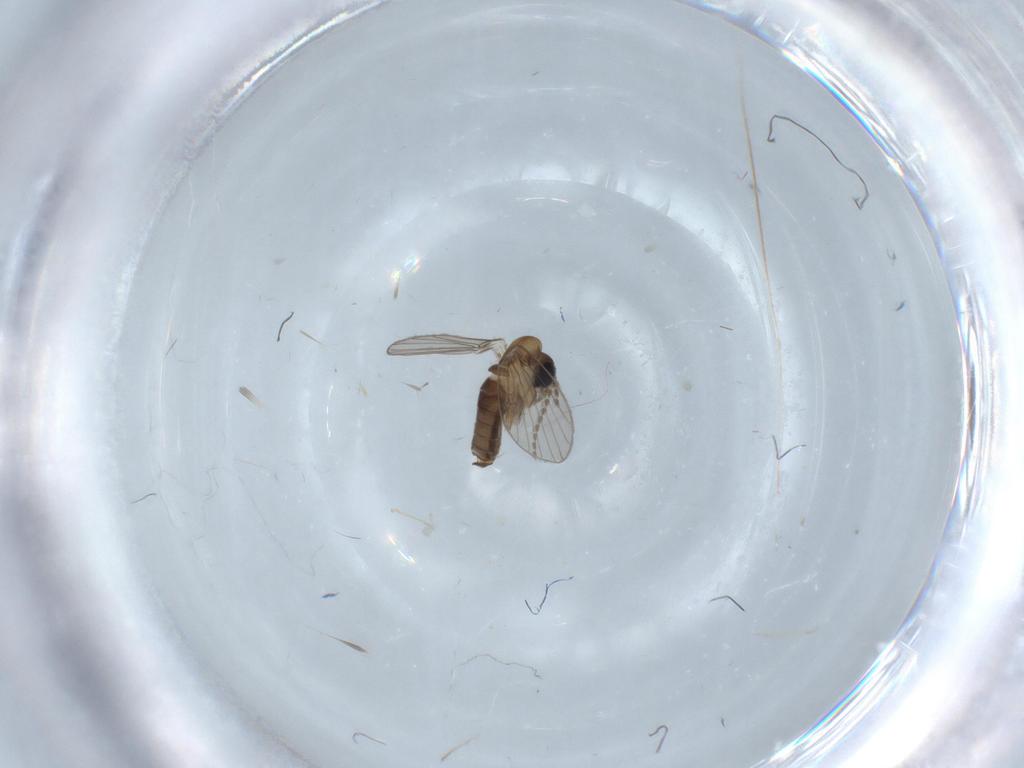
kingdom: Animalia
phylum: Arthropoda
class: Insecta
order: Diptera
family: Psychodidae
